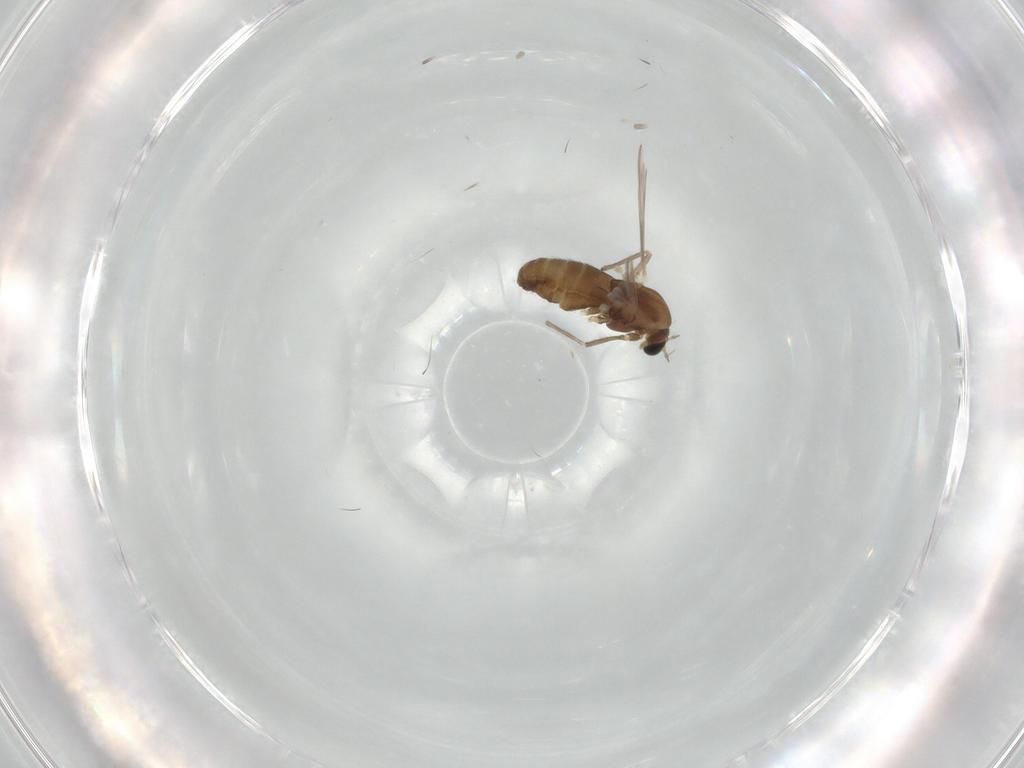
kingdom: Animalia
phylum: Arthropoda
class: Insecta
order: Diptera
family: Chironomidae
